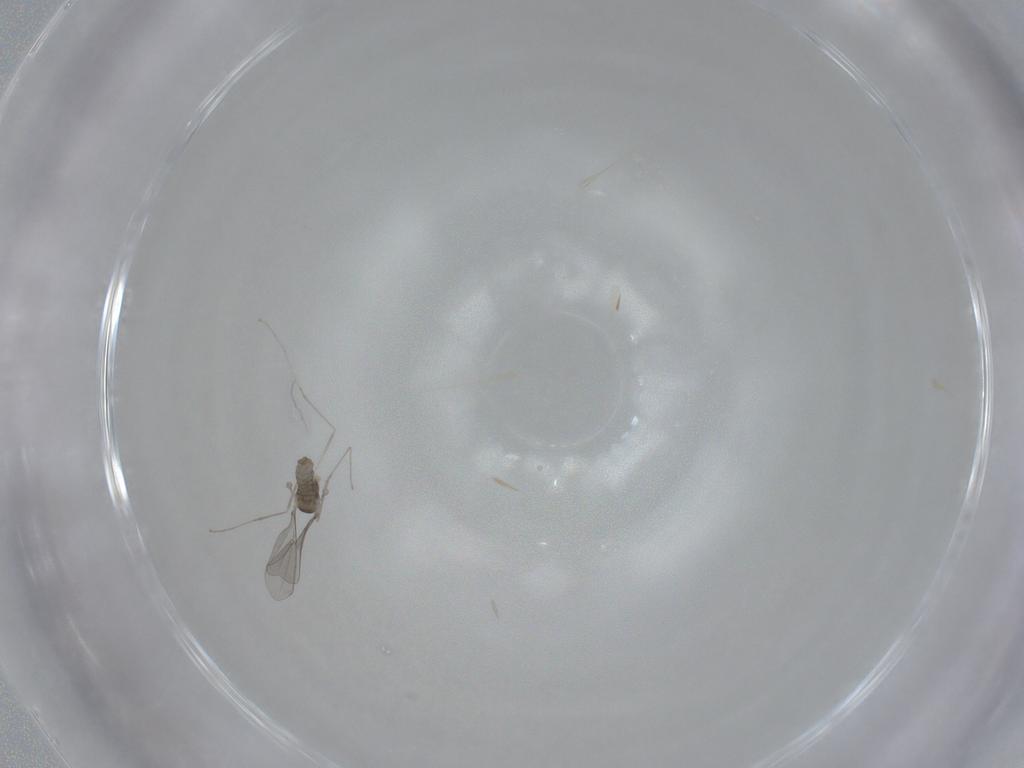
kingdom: Animalia
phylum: Arthropoda
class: Insecta
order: Diptera
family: Cecidomyiidae
